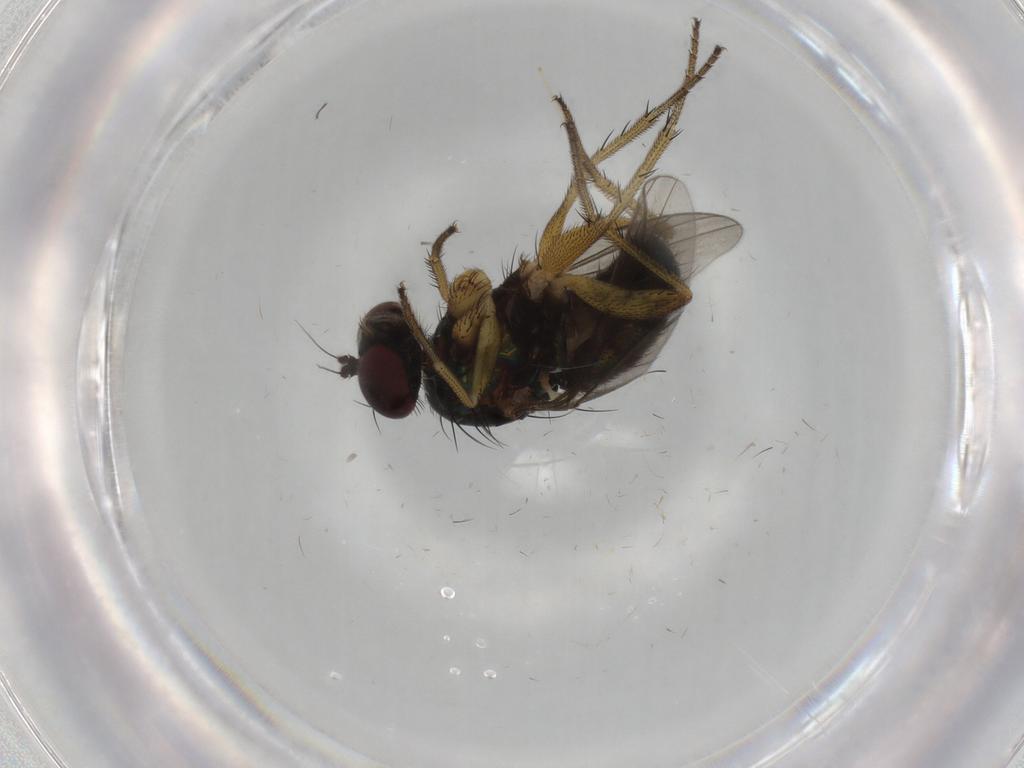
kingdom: Animalia
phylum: Arthropoda
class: Insecta
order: Diptera
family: Dolichopodidae
